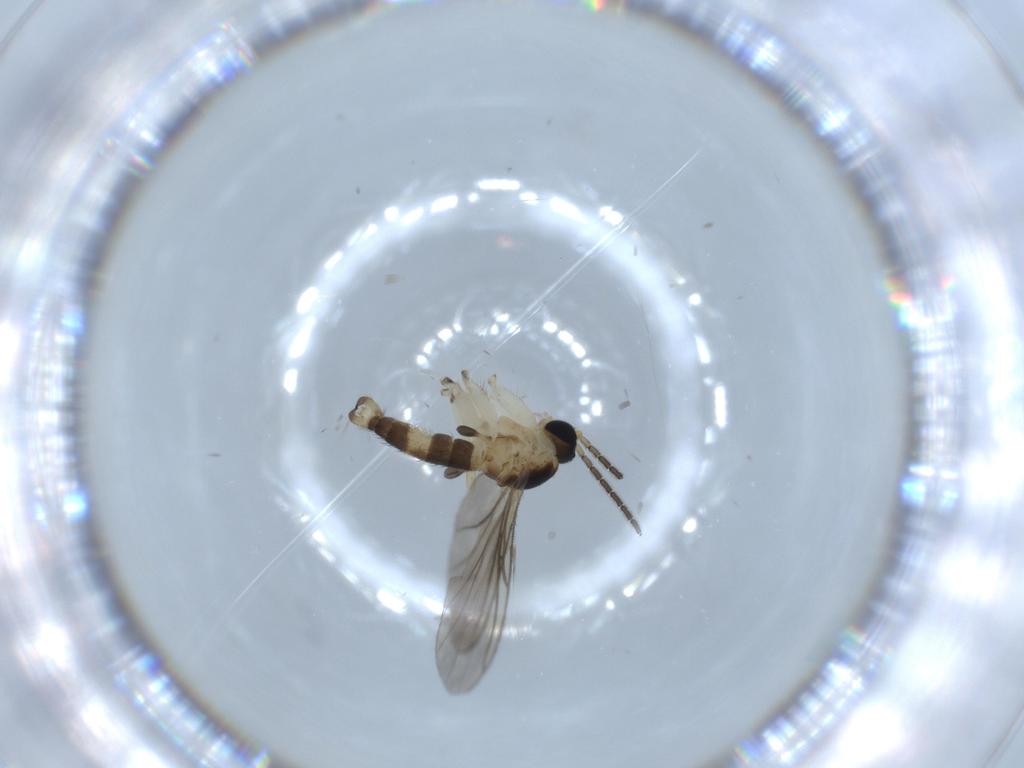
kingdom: Animalia
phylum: Arthropoda
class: Insecta
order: Diptera
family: Sciaridae
